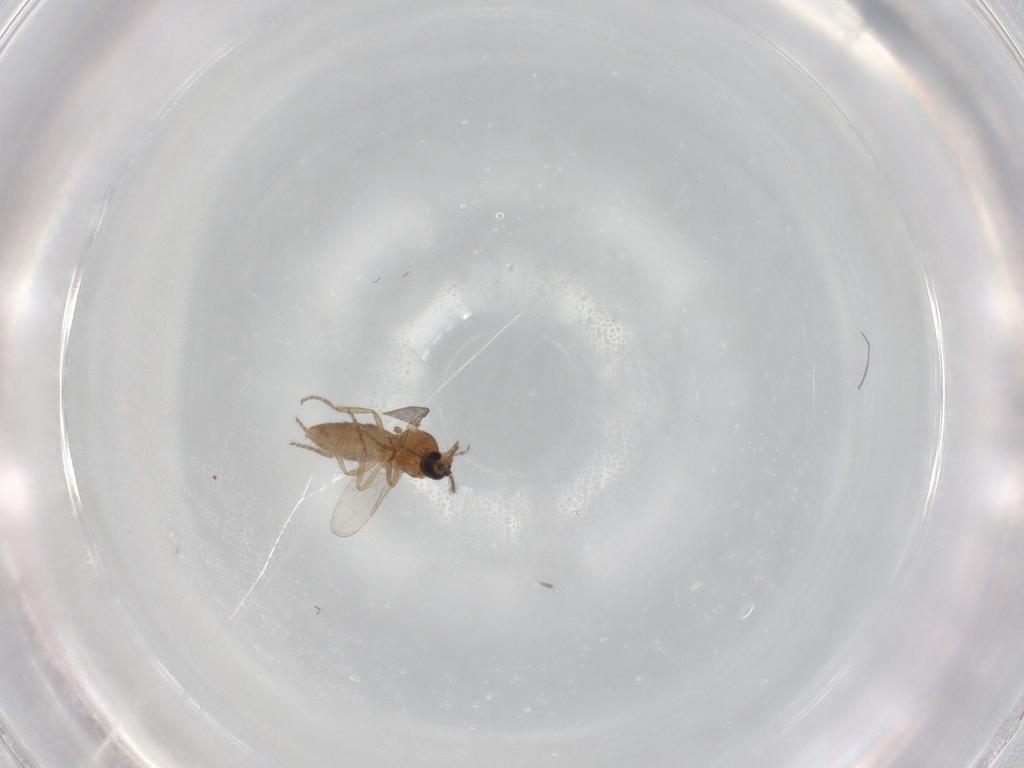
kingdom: Animalia
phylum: Arthropoda
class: Insecta
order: Diptera
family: Ceratopogonidae
